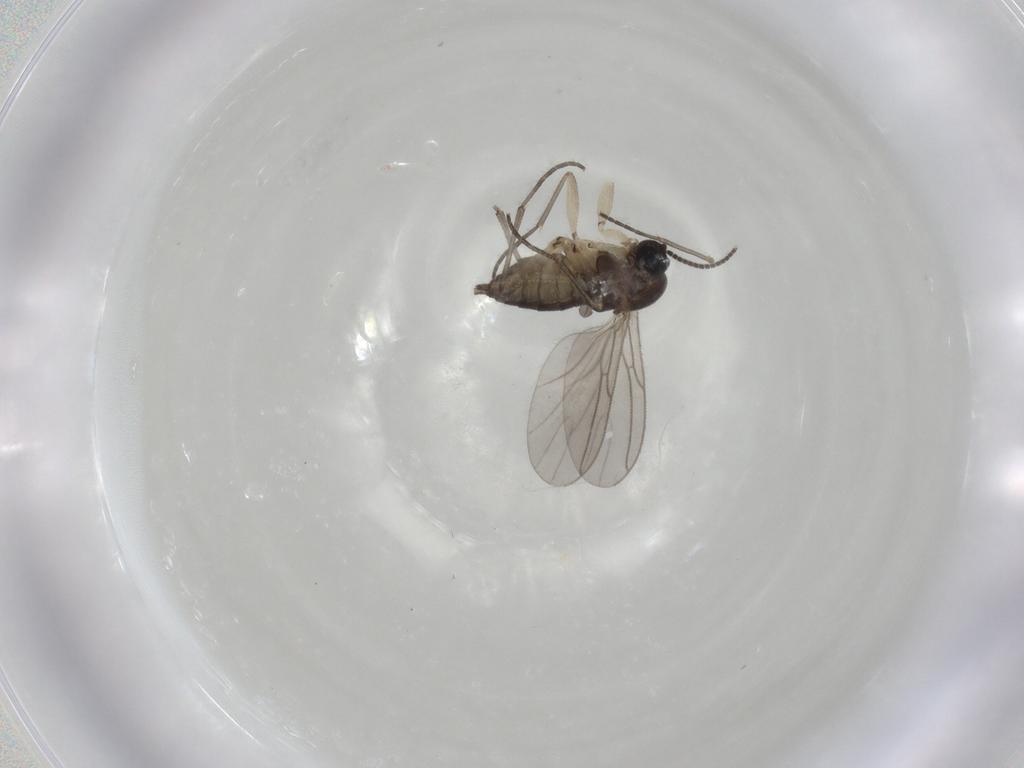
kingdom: Animalia
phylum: Arthropoda
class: Insecta
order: Diptera
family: Sciaridae
